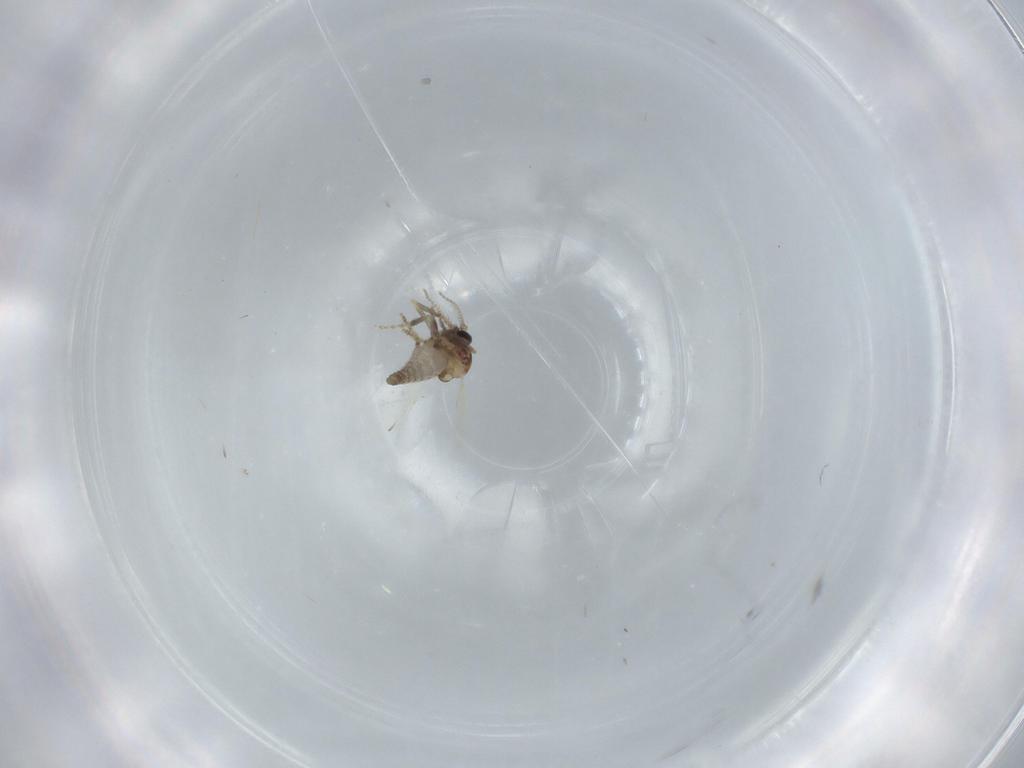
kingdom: Animalia
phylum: Arthropoda
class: Insecta
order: Diptera
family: Ceratopogonidae
